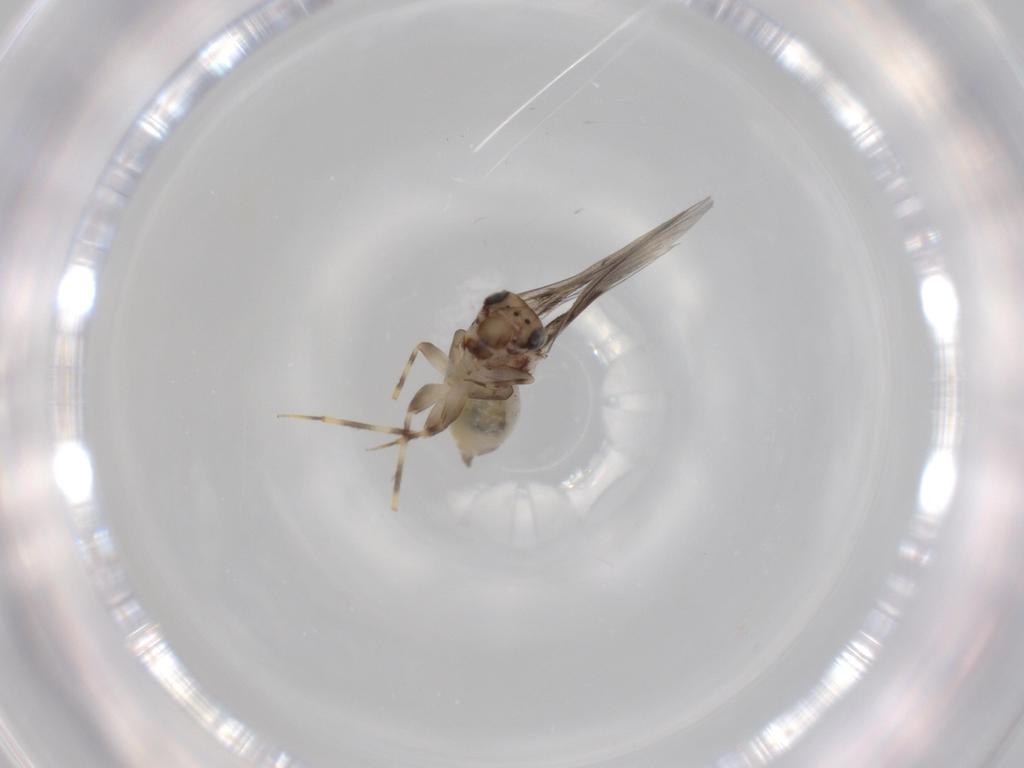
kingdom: Animalia
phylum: Arthropoda
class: Insecta
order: Psocodea
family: Lepidopsocidae
